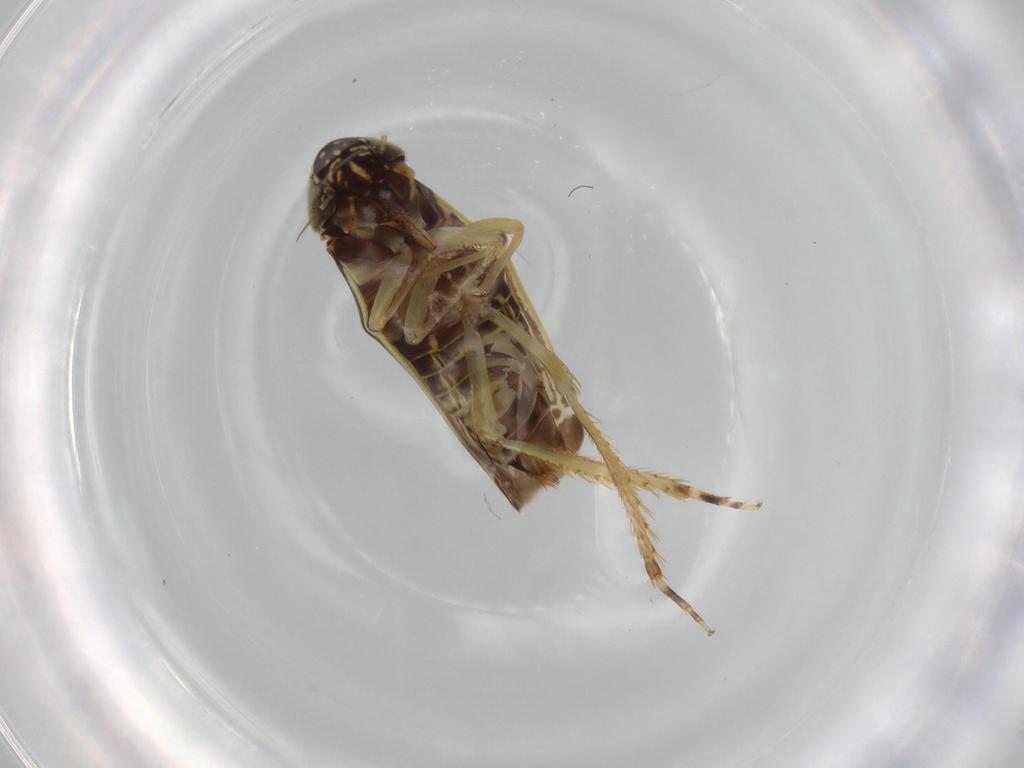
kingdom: Animalia
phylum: Arthropoda
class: Insecta
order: Hemiptera
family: Cicadellidae
